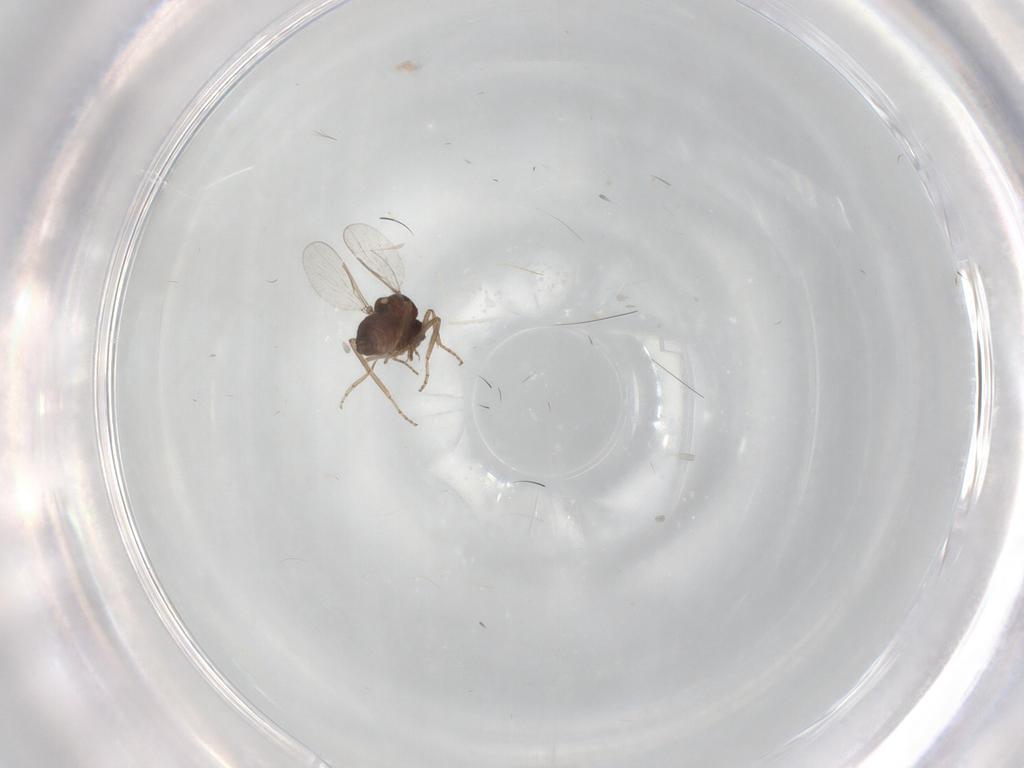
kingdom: Animalia
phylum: Arthropoda
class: Insecta
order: Diptera
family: Ceratopogonidae
